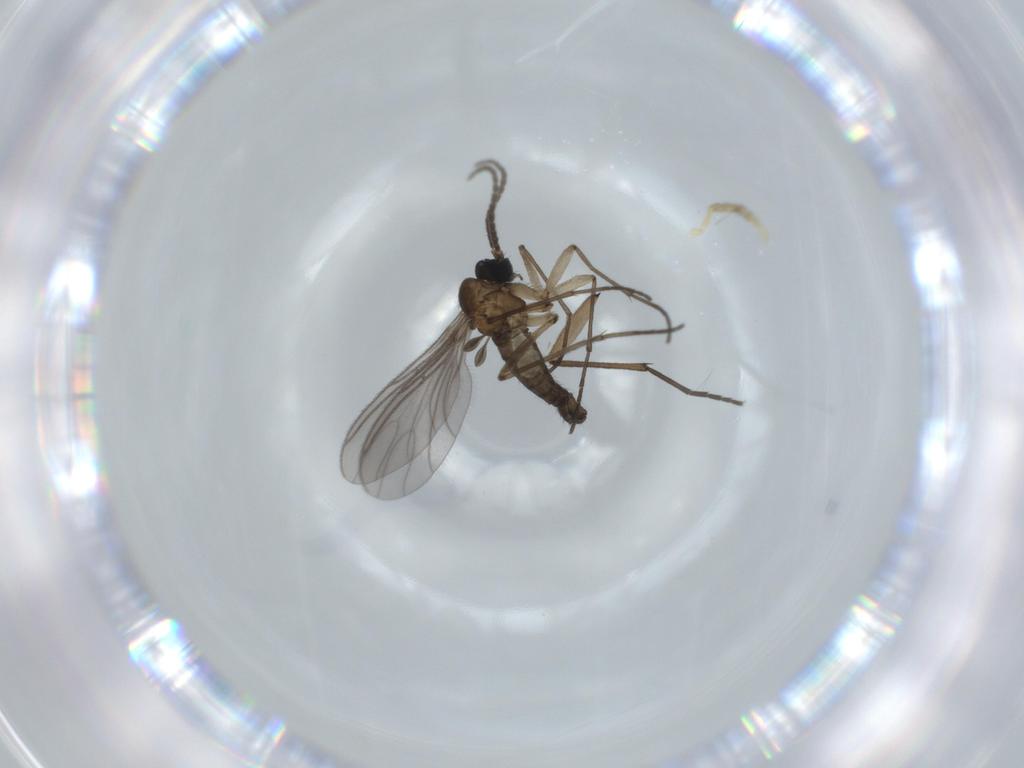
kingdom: Animalia
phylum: Arthropoda
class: Insecta
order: Diptera
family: Sciaridae
